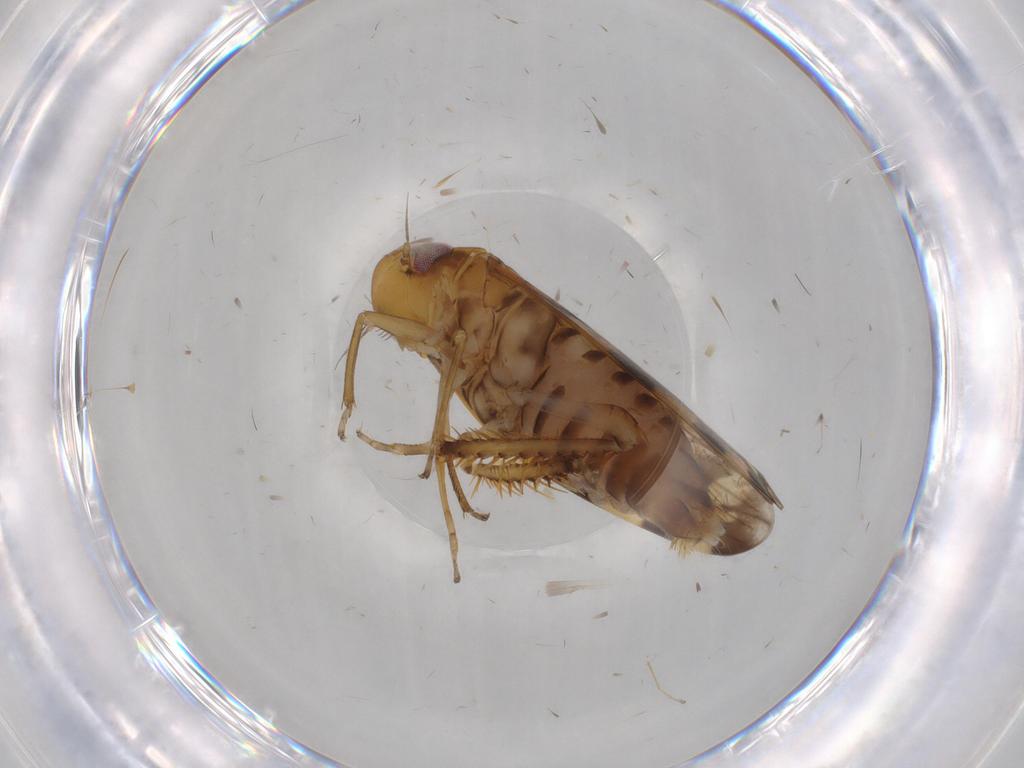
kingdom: Animalia
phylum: Arthropoda
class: Insecta
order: Hemiptera
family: Cicadellidae
